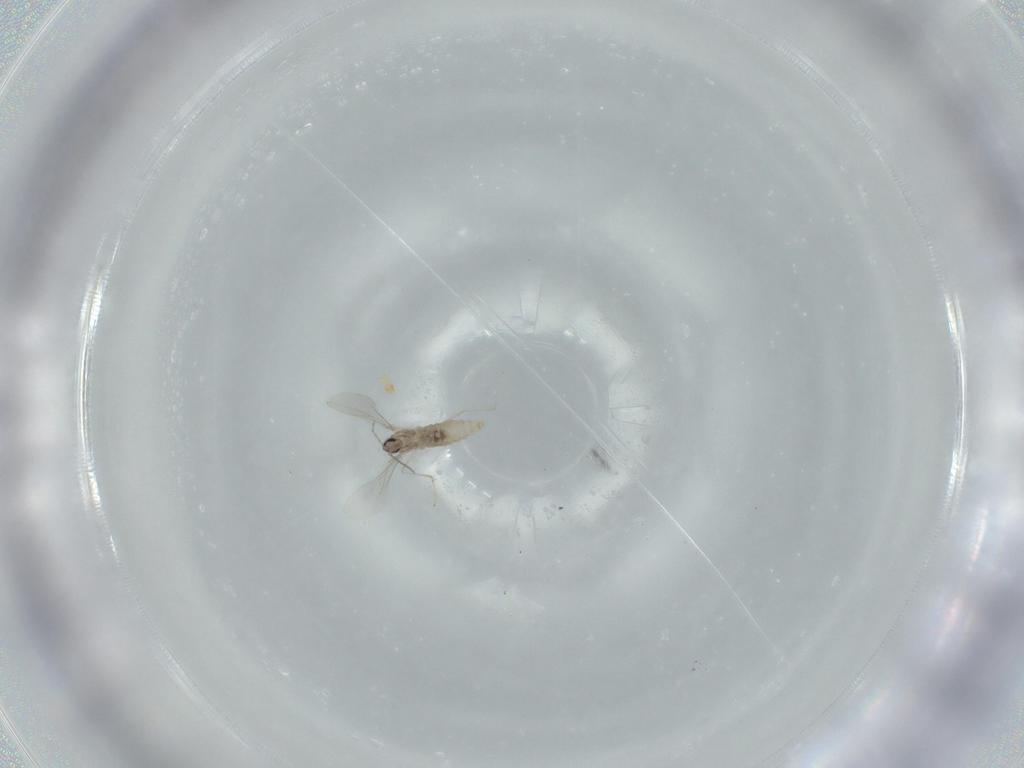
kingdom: Animalia
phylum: Arthropoda
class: Insecta
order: Diptera
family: Cecidomyiidae
